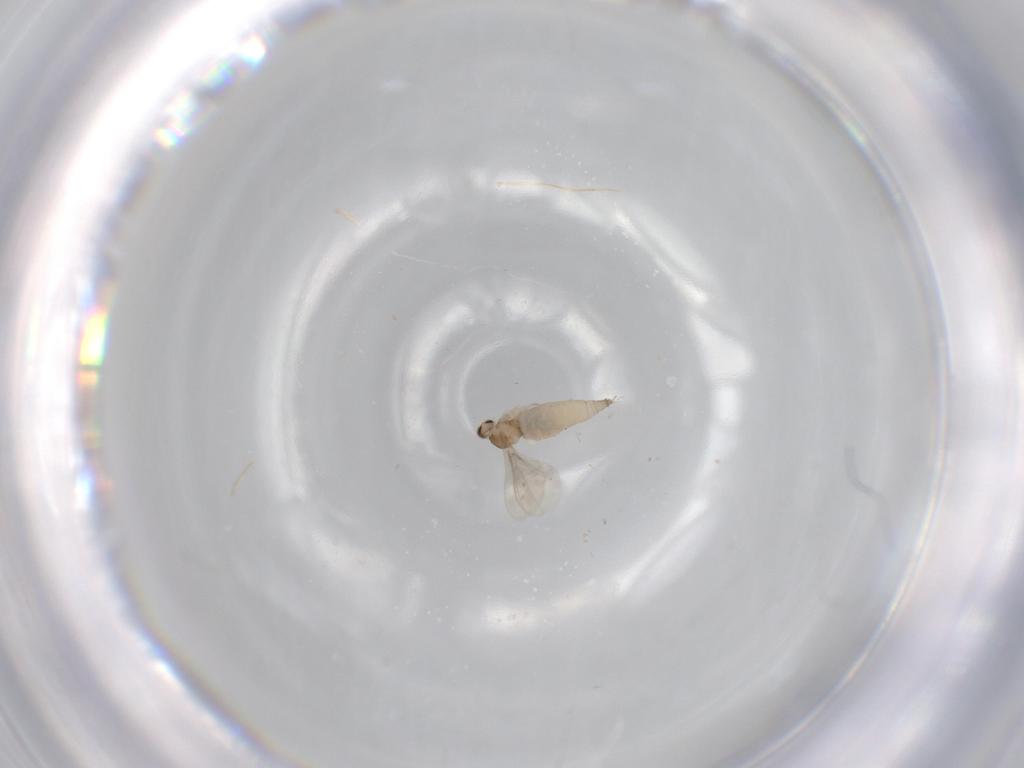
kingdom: Animalia
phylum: Arthropoda
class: Insecta
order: Diptera
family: Cecidomyiidae
